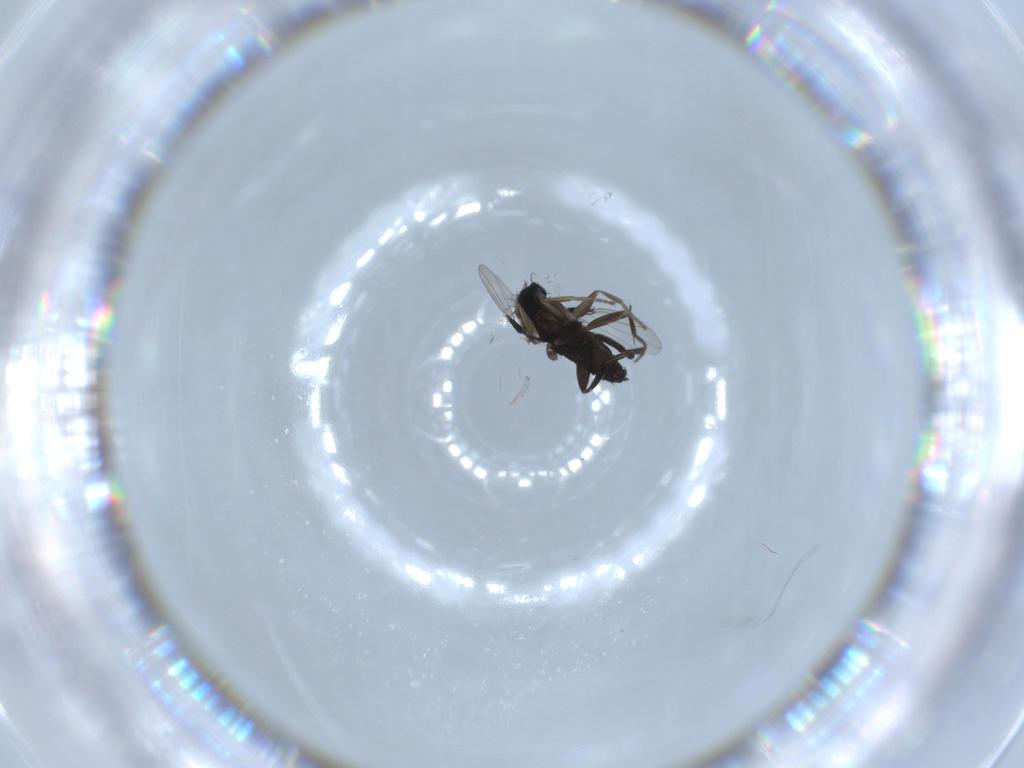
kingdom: Animalia
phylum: Arthropoda
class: Insecta
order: Diptera
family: Phoridae
